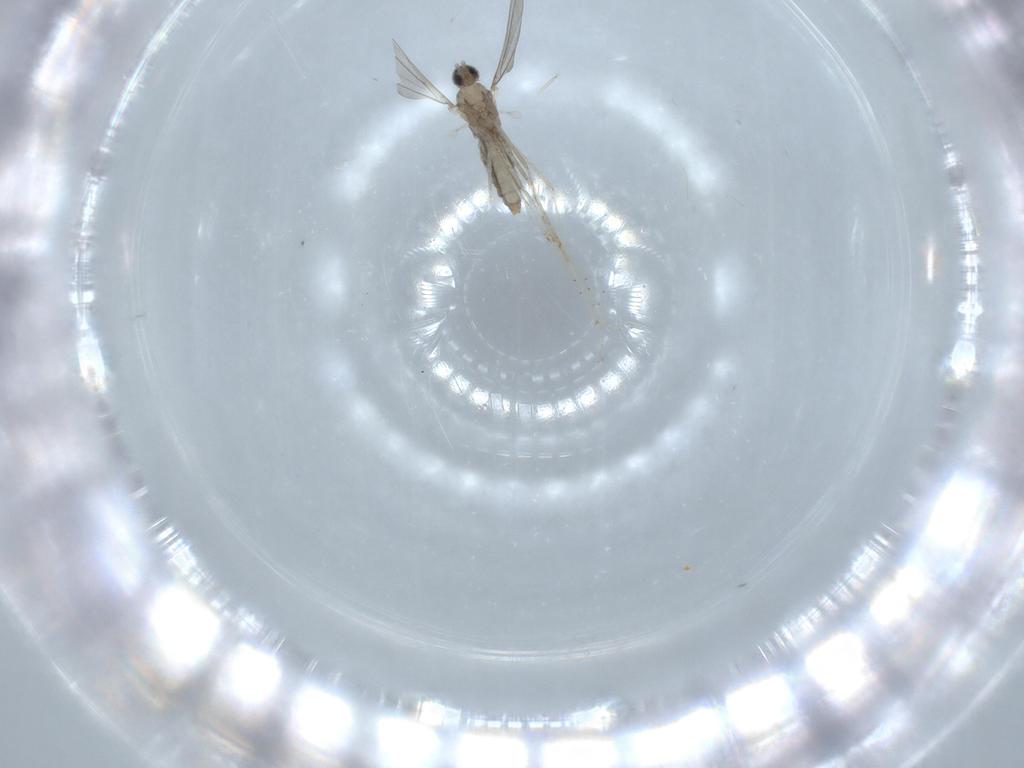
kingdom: Animalia
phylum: Arthropoda
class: Insecta
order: Diptera
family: Cecidomyiidae
